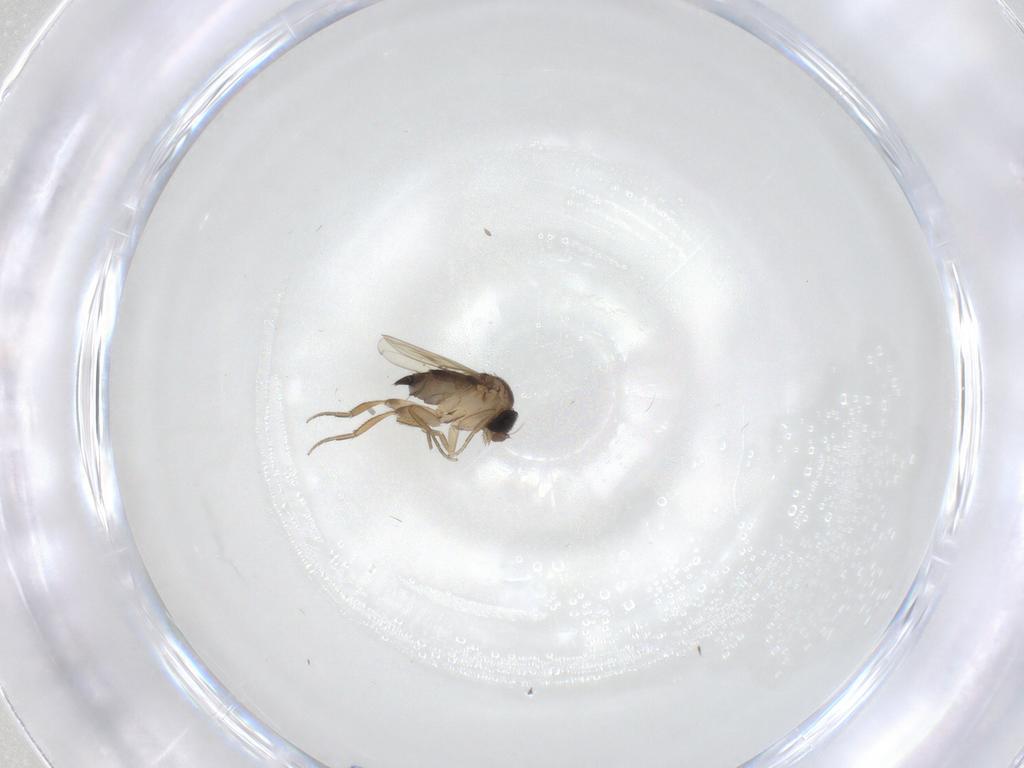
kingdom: Animalia
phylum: Arthropoda
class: Insecta
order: Diptera
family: Phoridae
